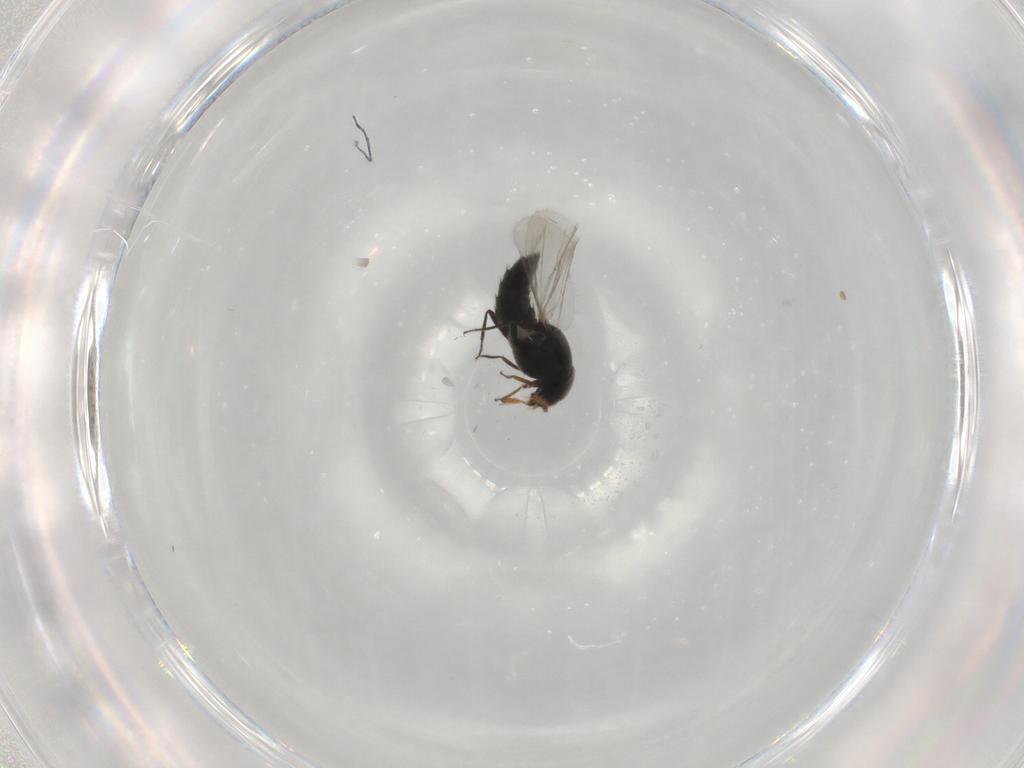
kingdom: Animalia
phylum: Arthropoda
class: Insecta
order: Coleoptera
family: Staphylinidae
